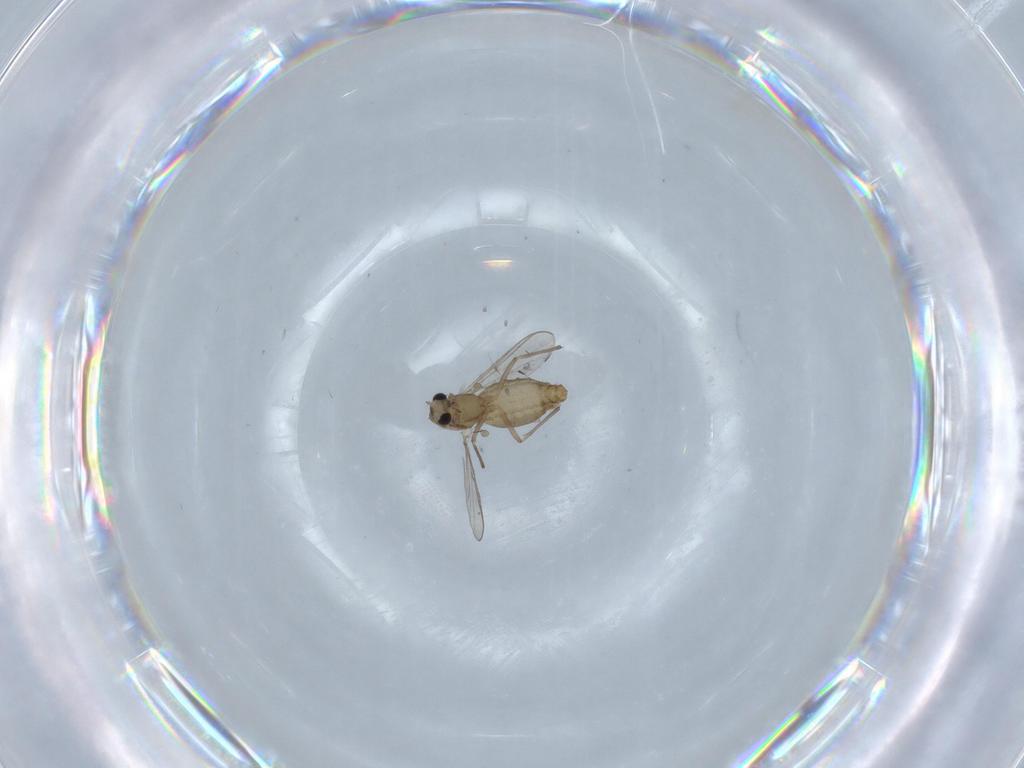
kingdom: Animalia
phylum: Arthropoda
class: Insecta
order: Diptera
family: Chironomidae
